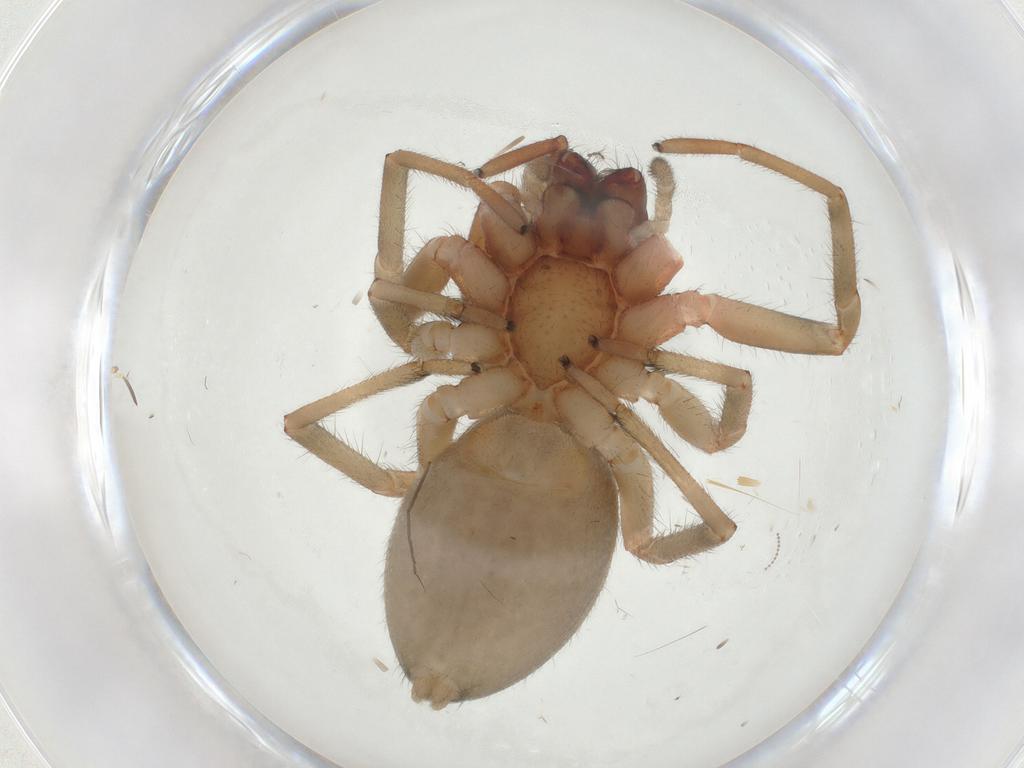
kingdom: Animalia
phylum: Arthropoda
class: Arachnida
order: Araneae
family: Trachelidae
